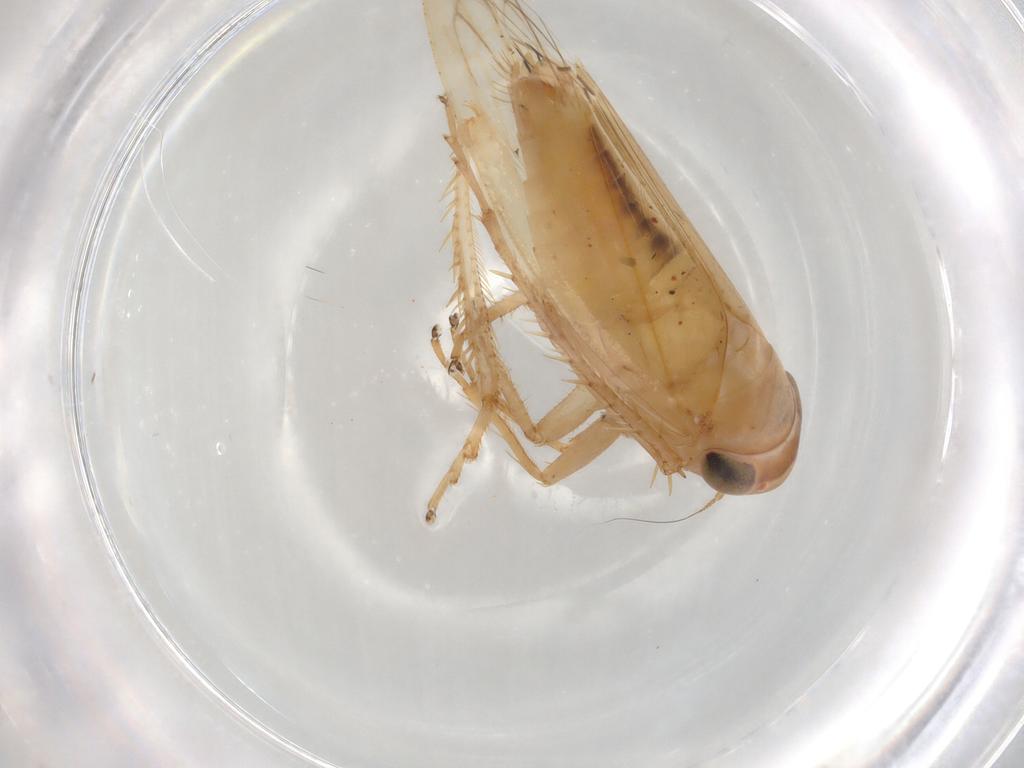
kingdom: Animalia
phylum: Arthropoda
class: Insecta
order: Hemiptera
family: Cicadellidae
